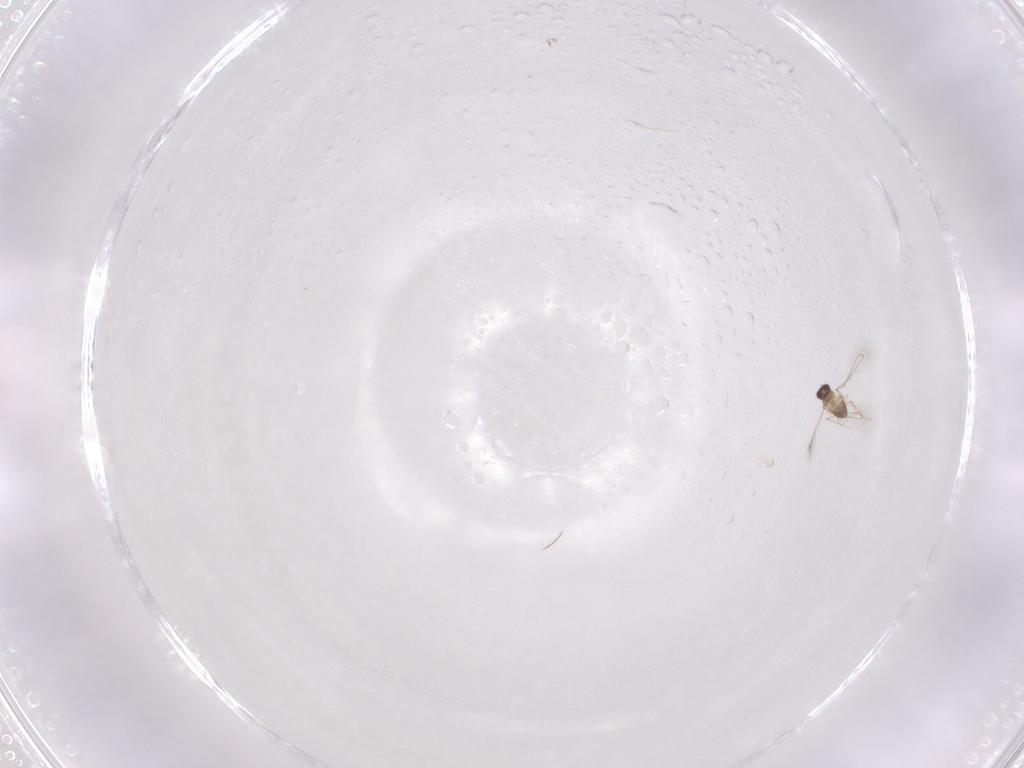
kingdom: Animalia
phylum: Arthropoda
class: Insecta
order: Hymenoptera
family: Mymaridae
